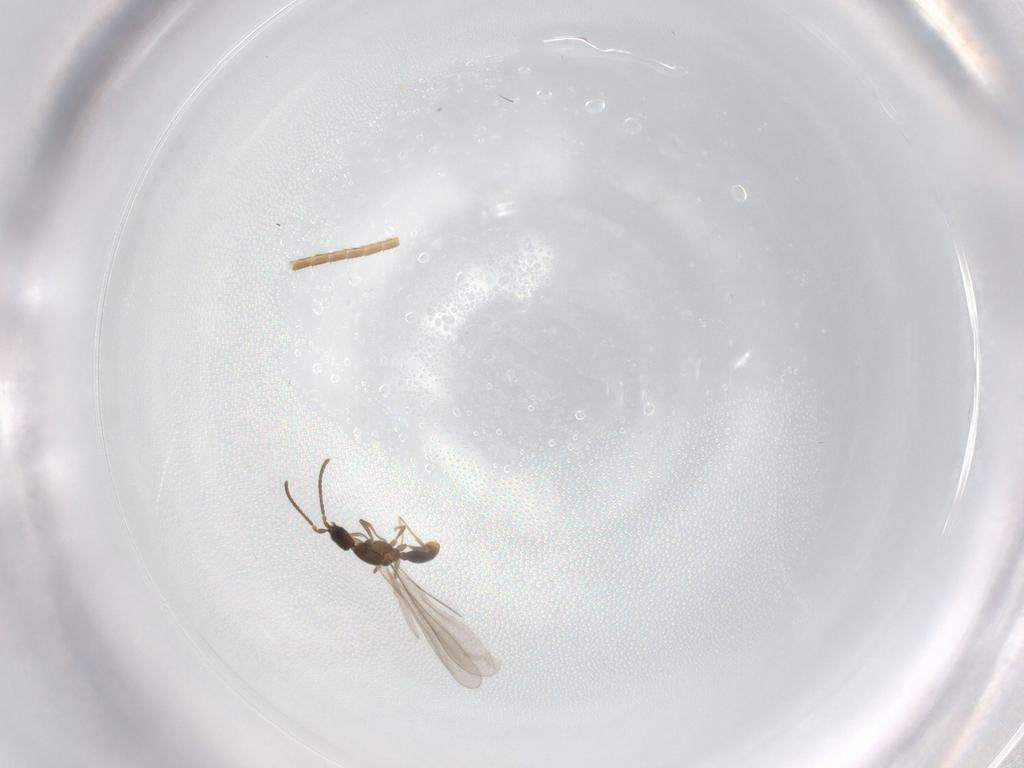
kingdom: Animalia
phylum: Arthropoda
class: Insecta
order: Hymenoptera
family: Formicidae
